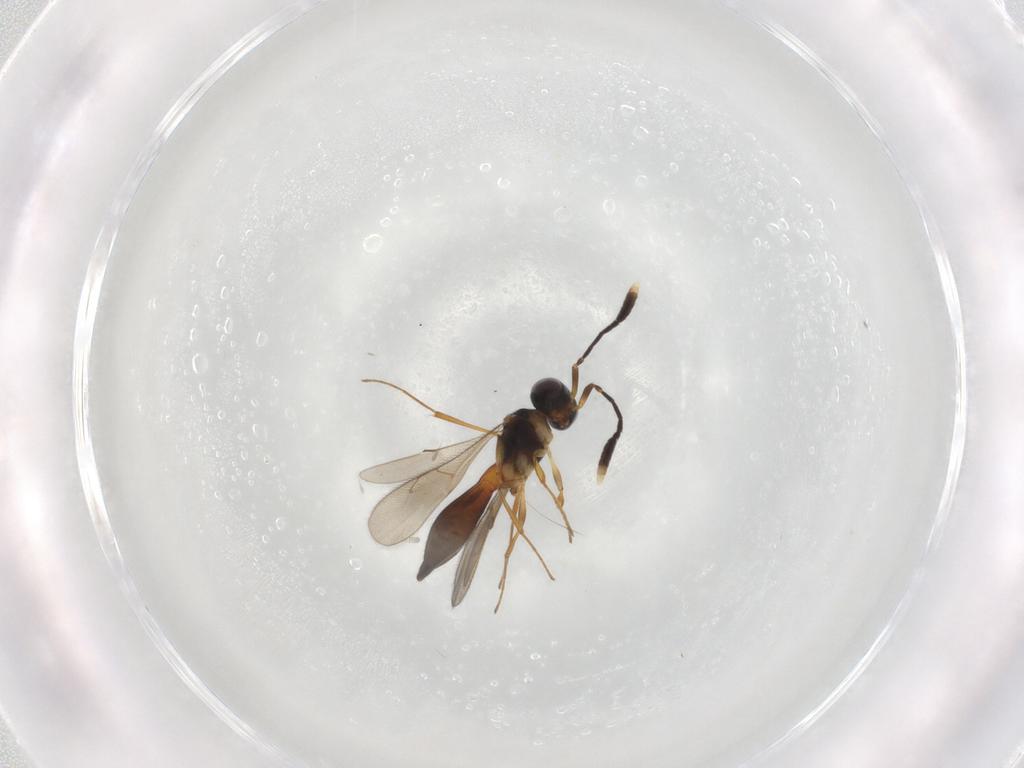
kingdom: Animalia
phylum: Arthropoda
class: Insecta
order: Hymenoptera
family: Scelionidae
